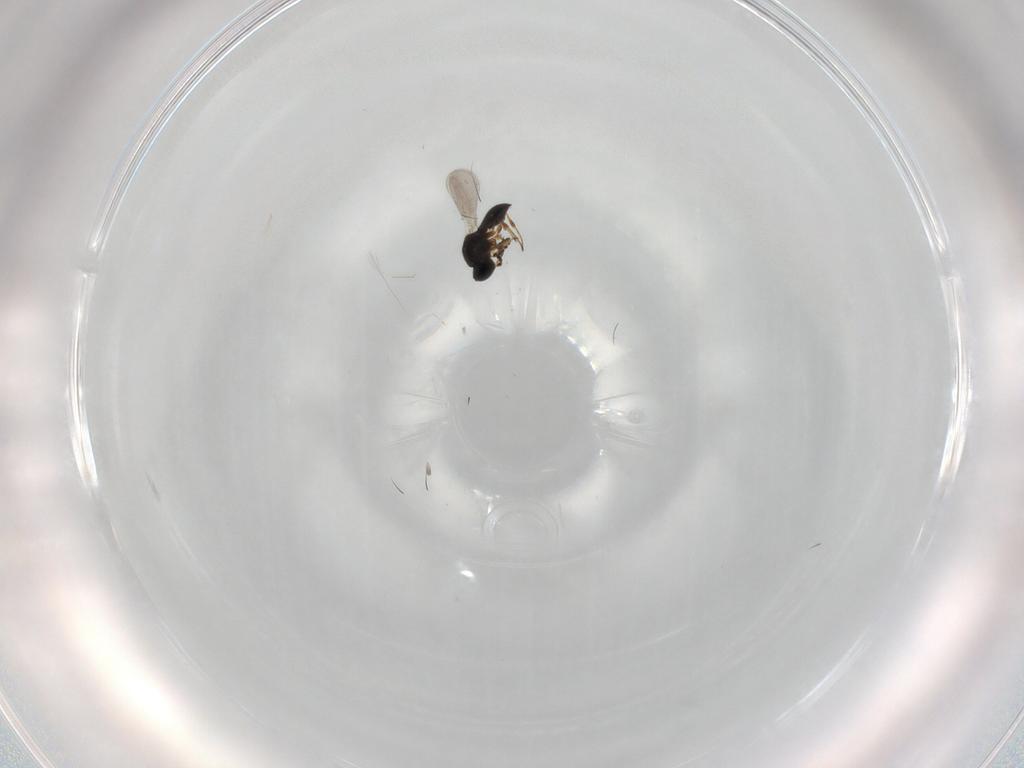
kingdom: Animalia
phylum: Arthropoda
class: Insecta
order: Hymenoptera
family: Platygastridae
